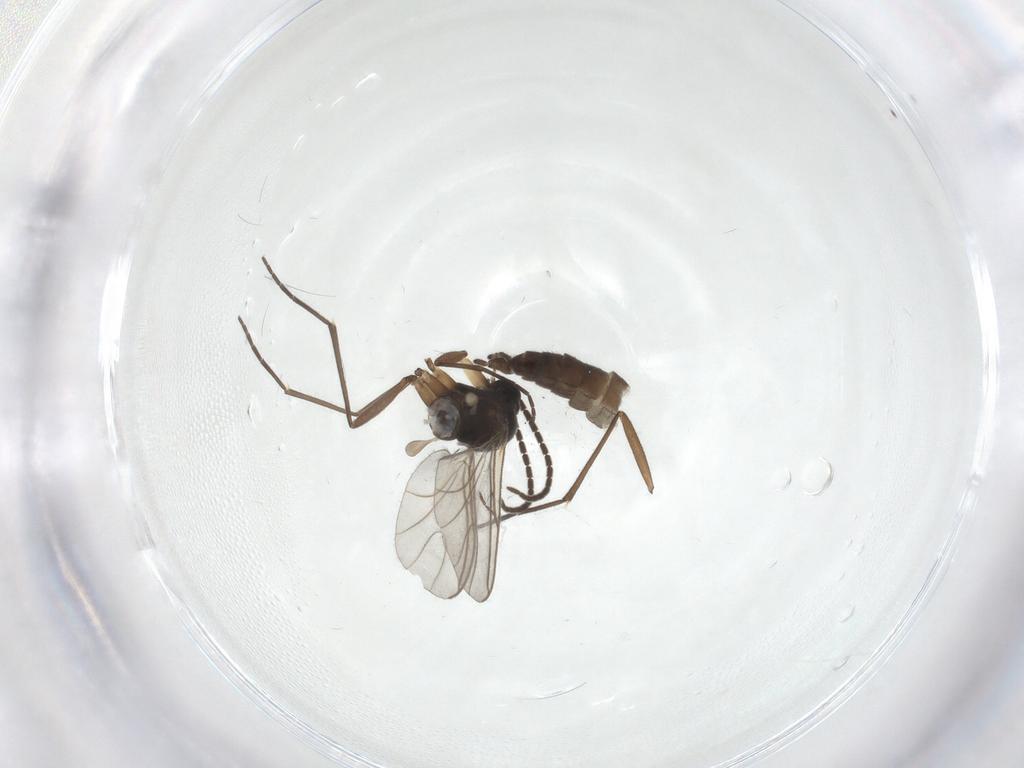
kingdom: Animalia
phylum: Arthropoda
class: Insecta
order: Diptera
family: Sciaridae
